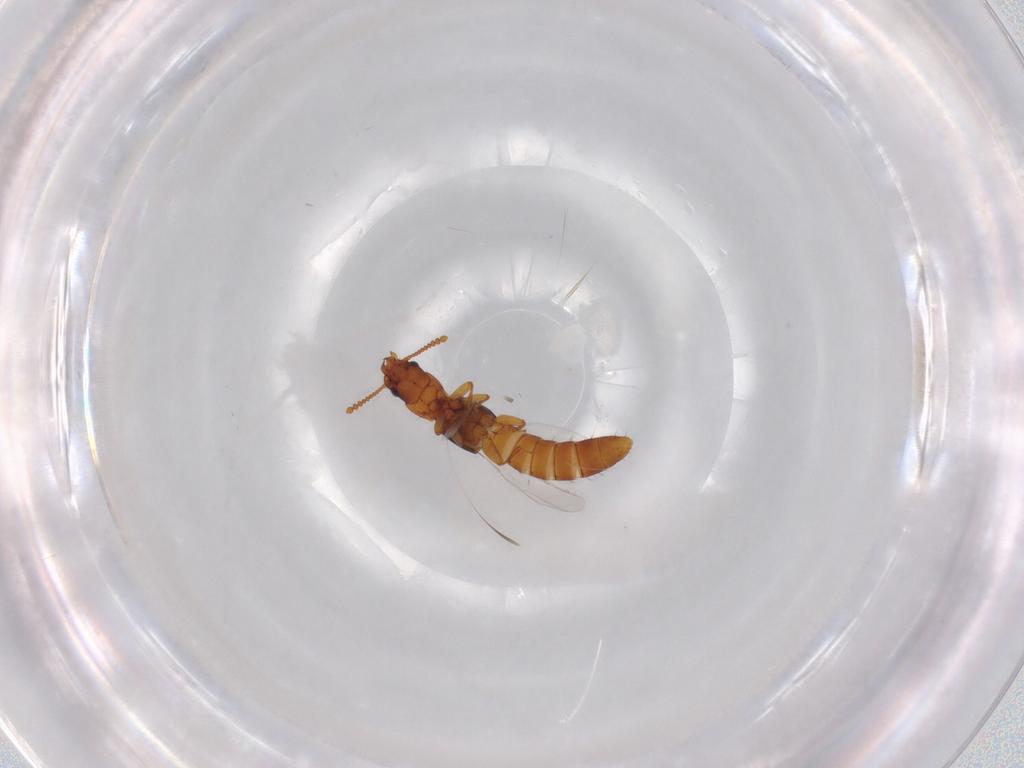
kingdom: Animalia
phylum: Arthropoda
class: Insecta
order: Coleoptera
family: Staphylinidae
